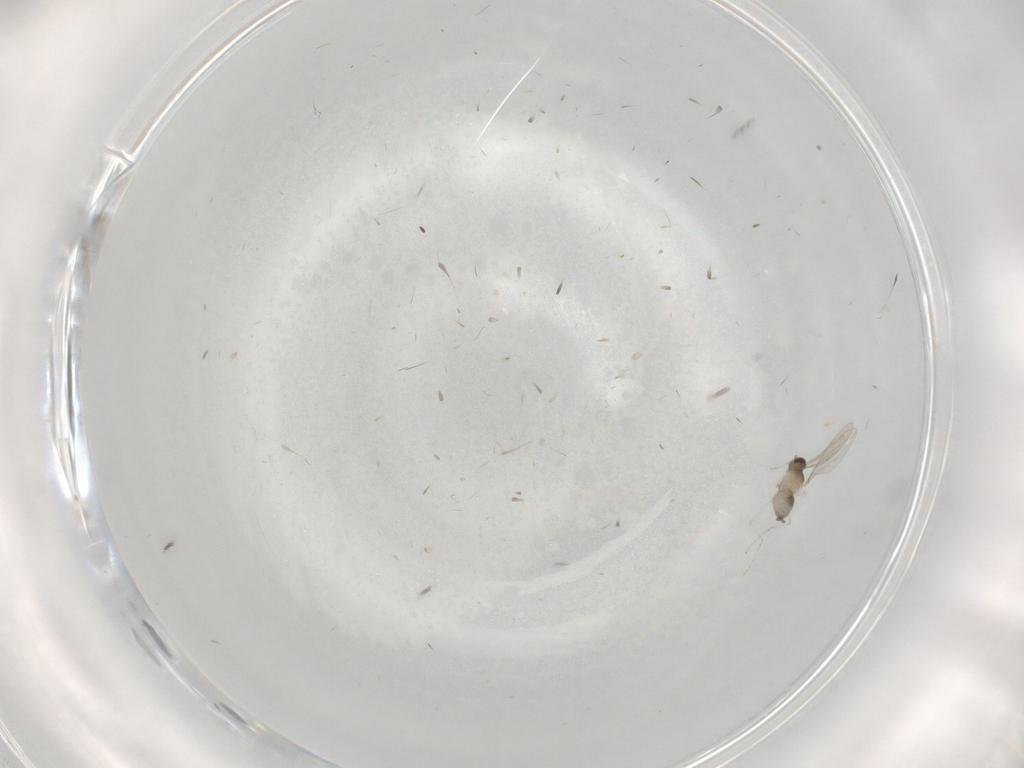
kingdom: Animalia
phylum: Arthropoda
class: Insecta
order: Diptera
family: Cecidomyiidae
